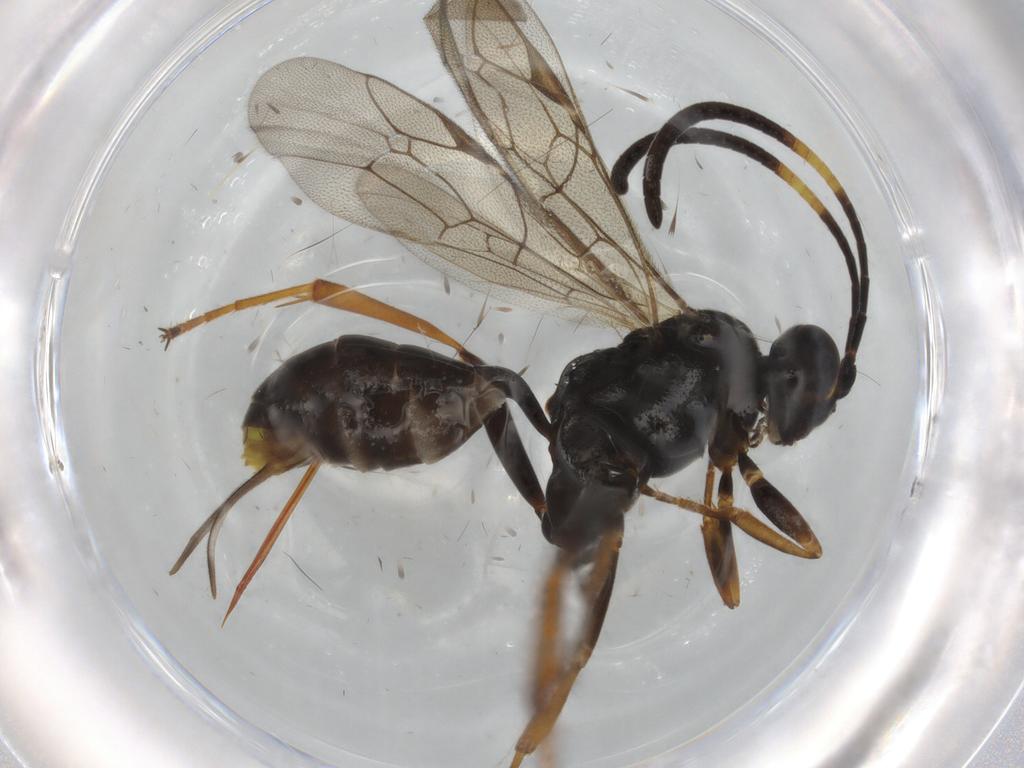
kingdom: Animalia
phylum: Arthropoda
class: Insecta
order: Hymenoptera
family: Ichneumonidae
